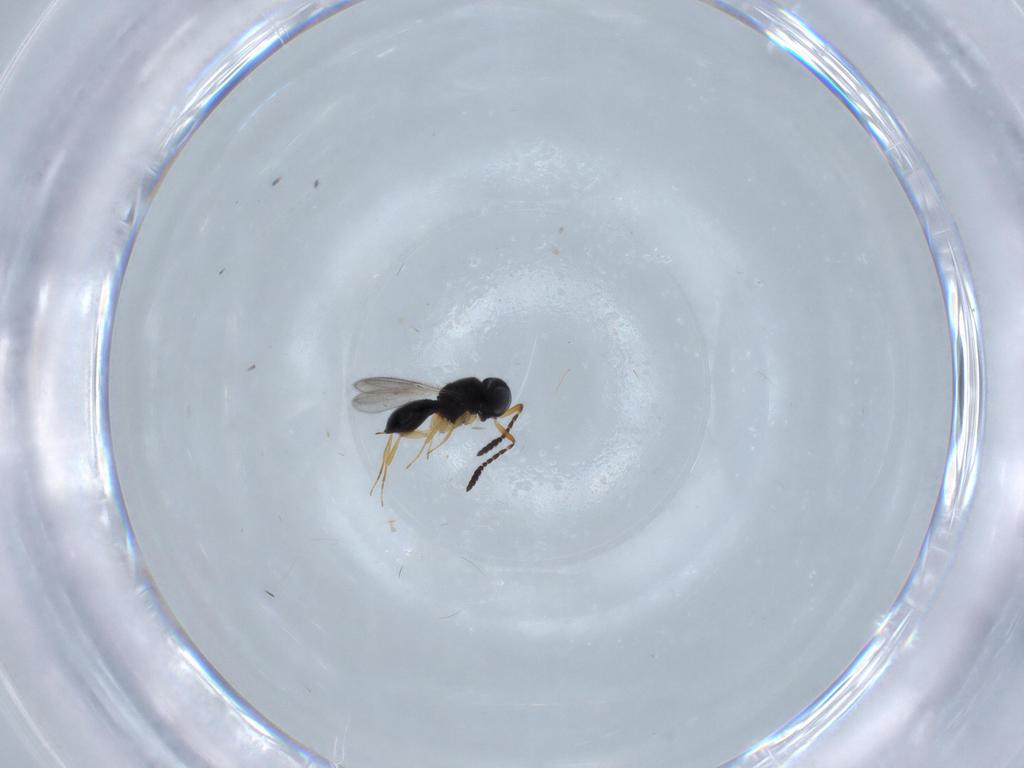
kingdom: Animalia
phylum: Arthropoda
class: Insecta
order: Hymenoptera
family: Scelionidae
